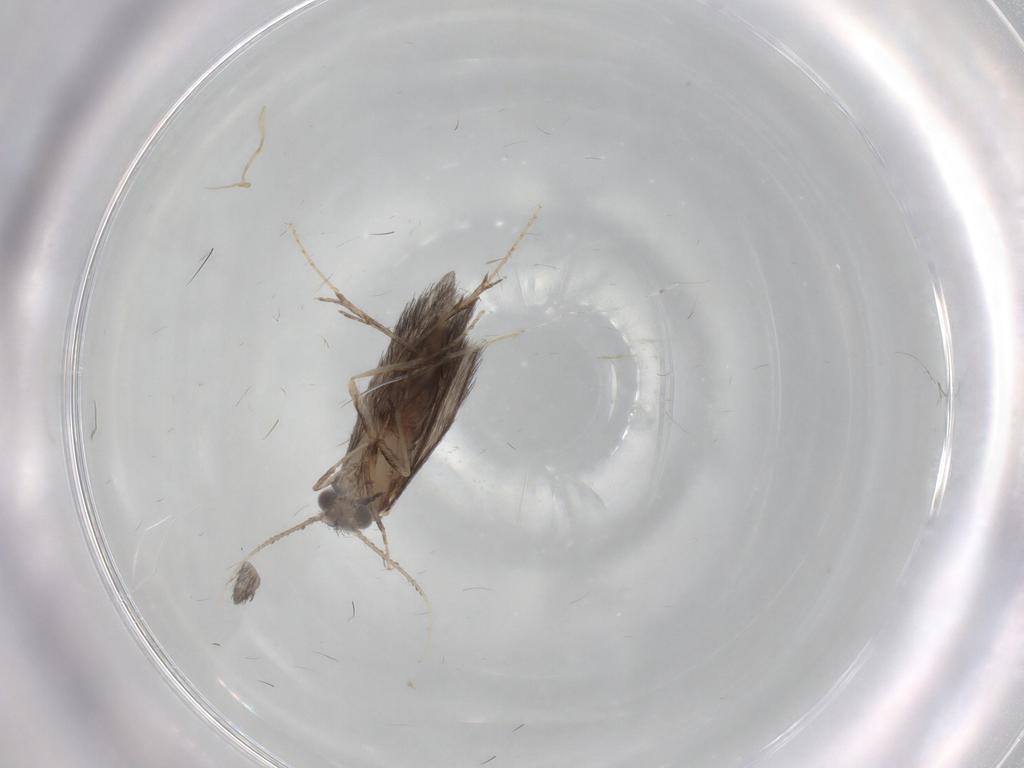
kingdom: Animalia
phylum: Arthropoda
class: Insecta
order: Trichoptera
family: Hydroptilidae
